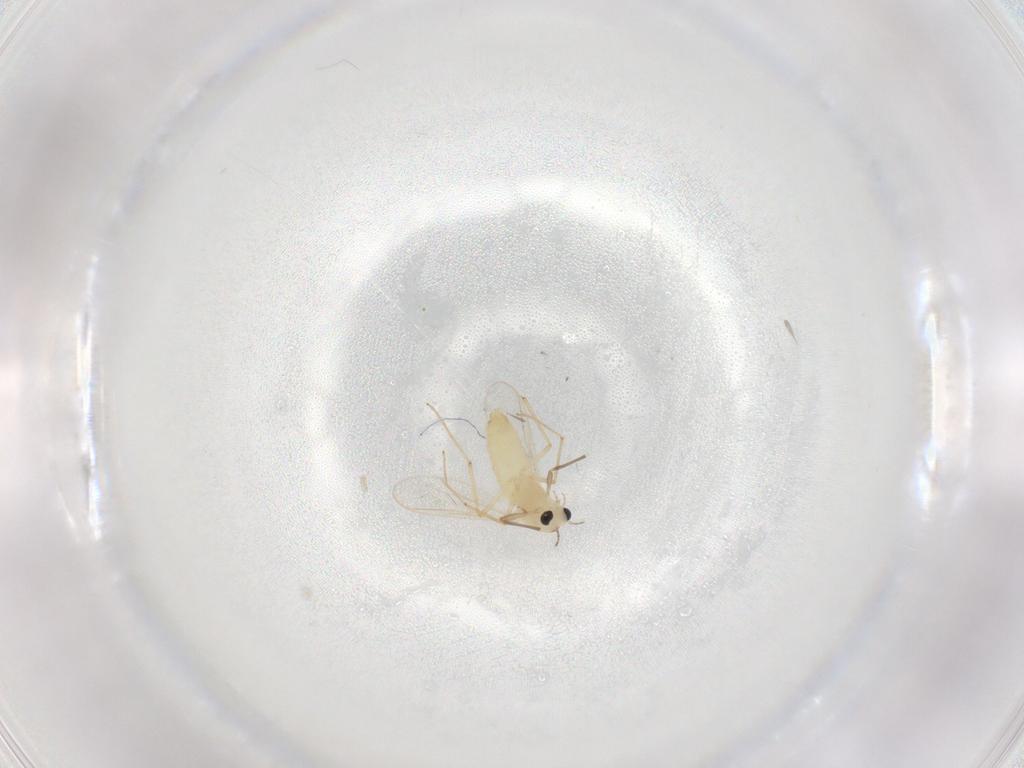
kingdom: Animalia
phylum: Arthropoda
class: Insecta
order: Diptera
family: Chironomidae
